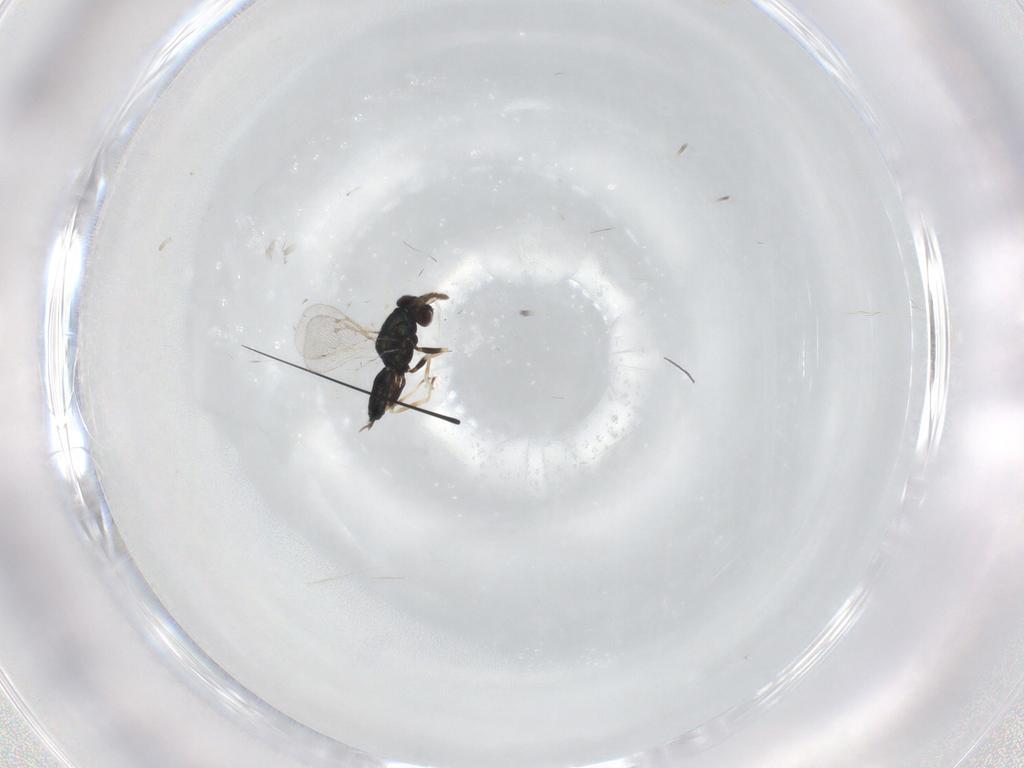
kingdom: Animalia
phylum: Arthropoda
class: Insecta
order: Hymenoptera
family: Eulophidae
